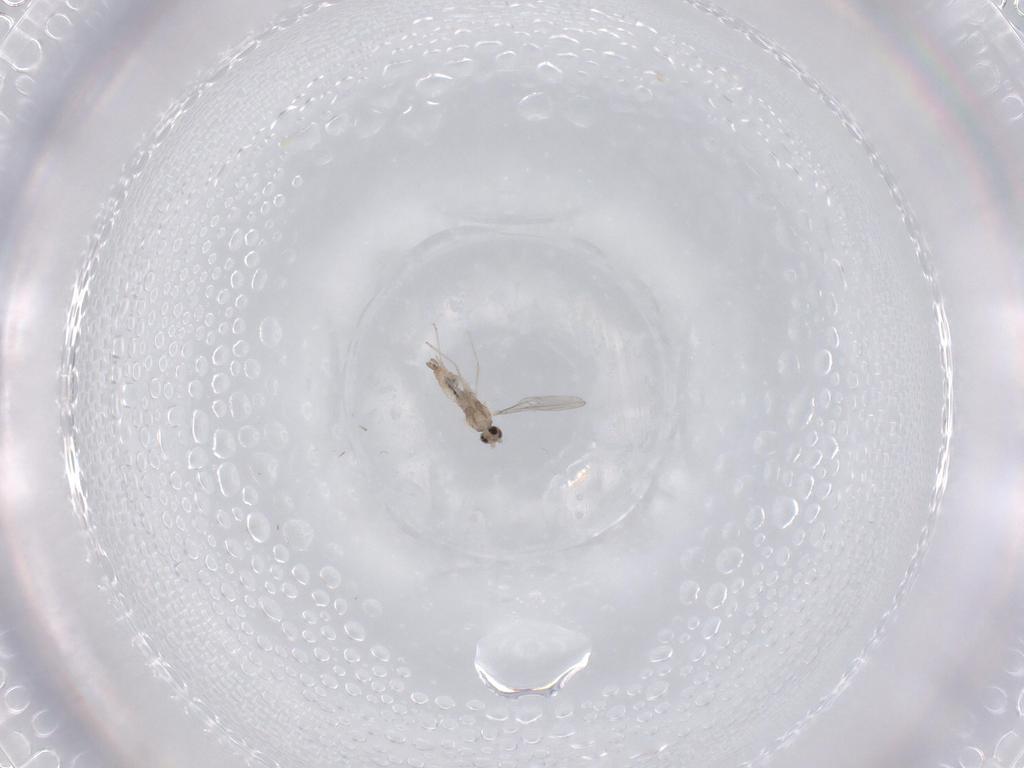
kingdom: Animalia
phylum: Arthropoda
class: Insecta
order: Diptera
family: Cecidomyiidae
